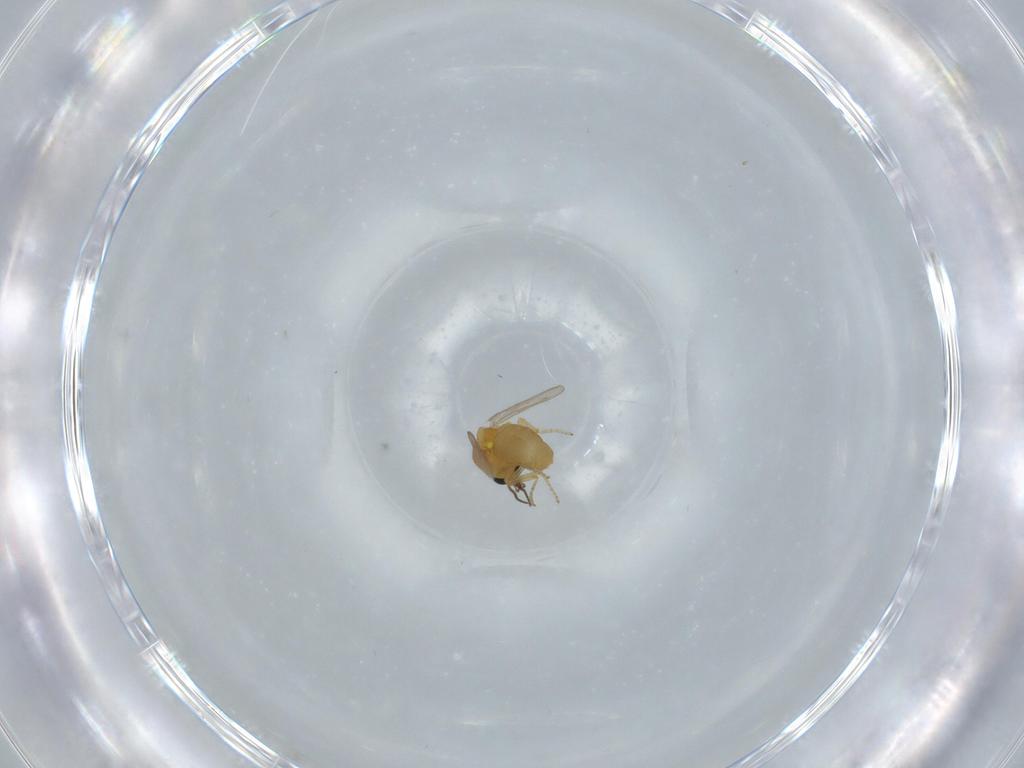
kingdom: Animalia
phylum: Arthropoda
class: Insecta
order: Diptera
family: Ceratopogonidae
